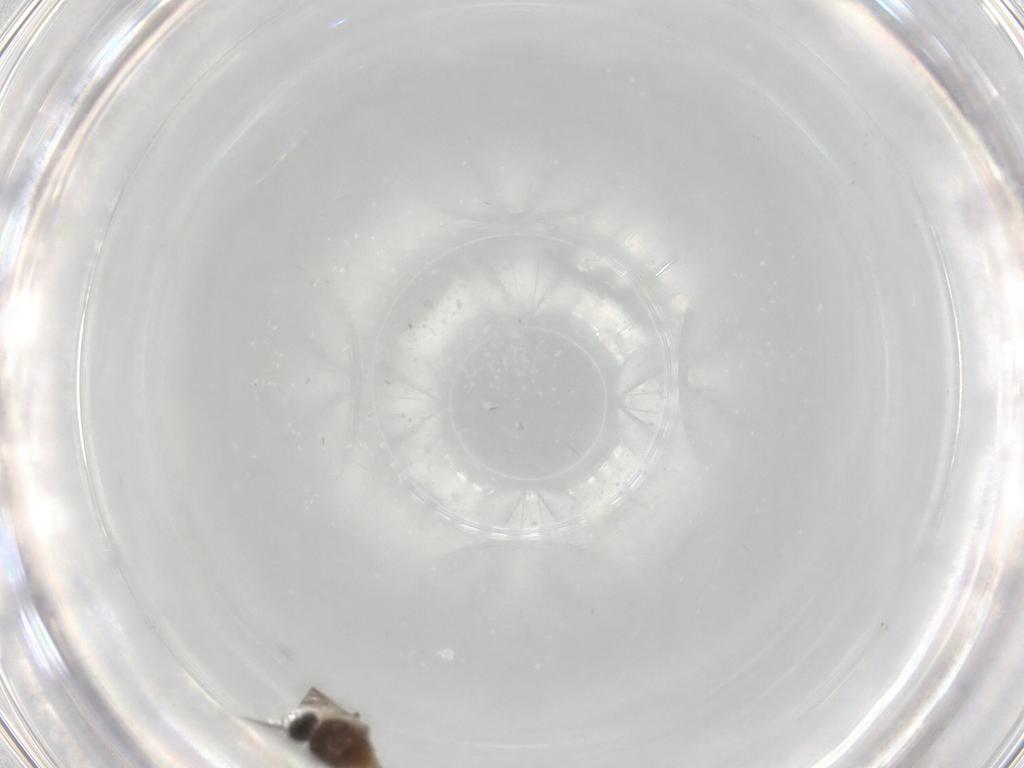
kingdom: Animalia
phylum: Arthropoda
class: Insecta
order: Diptera
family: Ceratopogonidae
